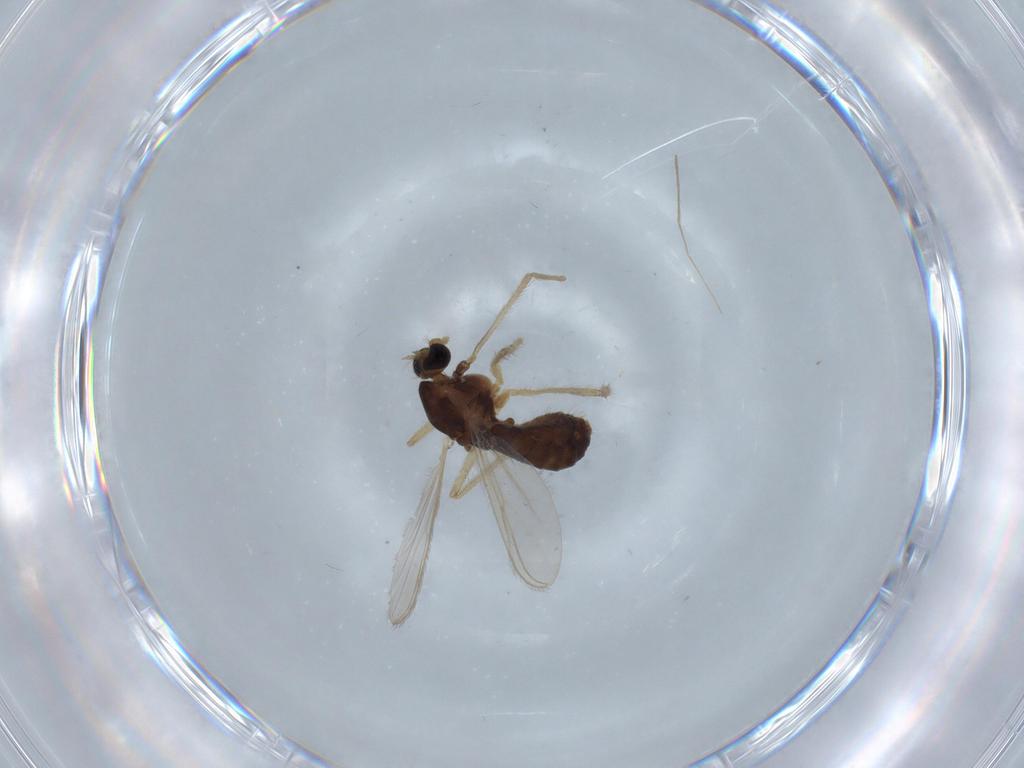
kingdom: Animalia
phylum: Arthropoda
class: Insecta
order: Diptera
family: Chironomidae
